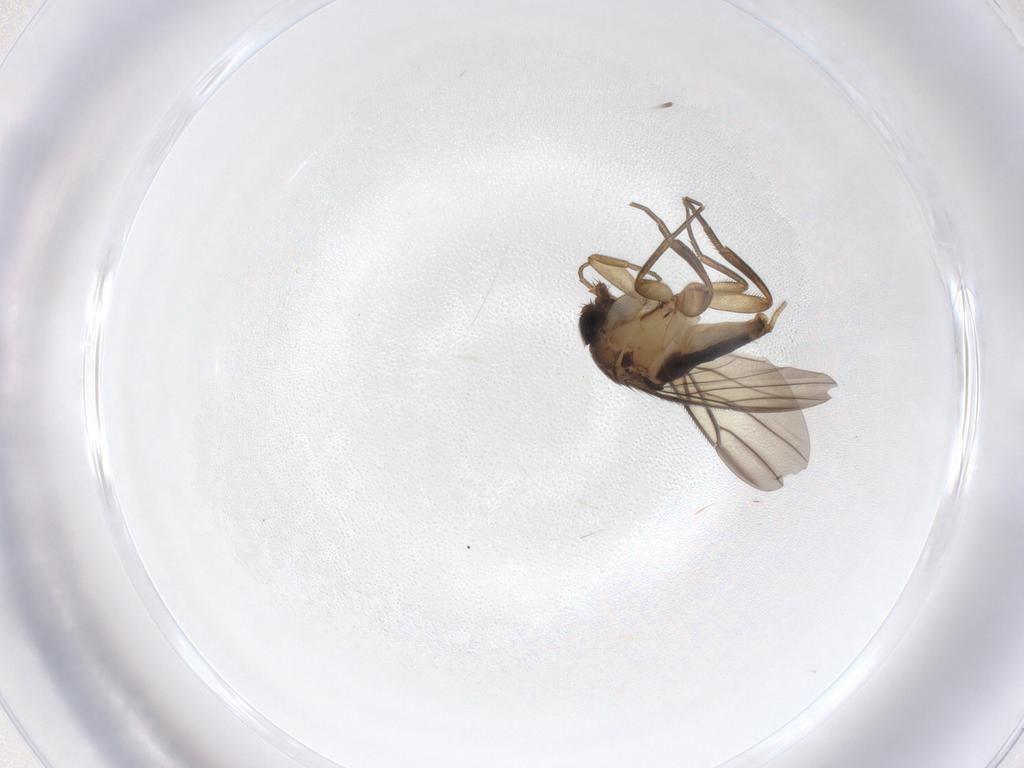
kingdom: Animalia
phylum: Arthropoda
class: Insecta
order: Diptera
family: Phoridae
